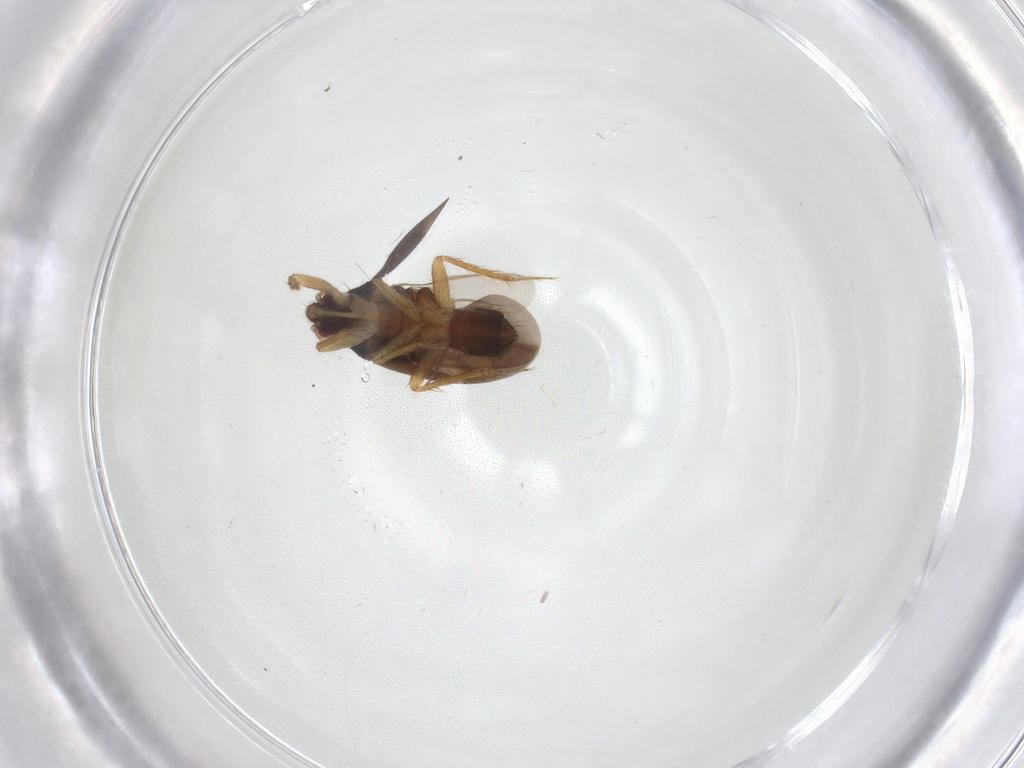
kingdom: Animalia
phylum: Arthropoda
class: Insecta
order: Hemiptera
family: Ceratocombidae
